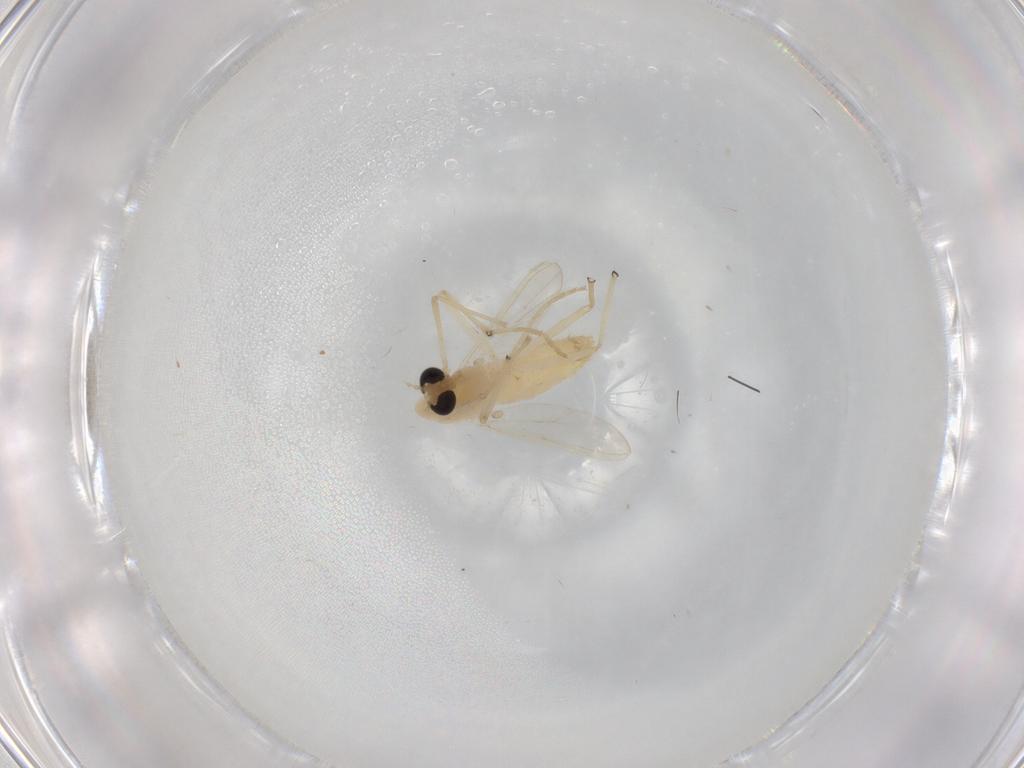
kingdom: Animalia
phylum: Arthropoda
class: Insecta
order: Diptera
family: Chironomidae
